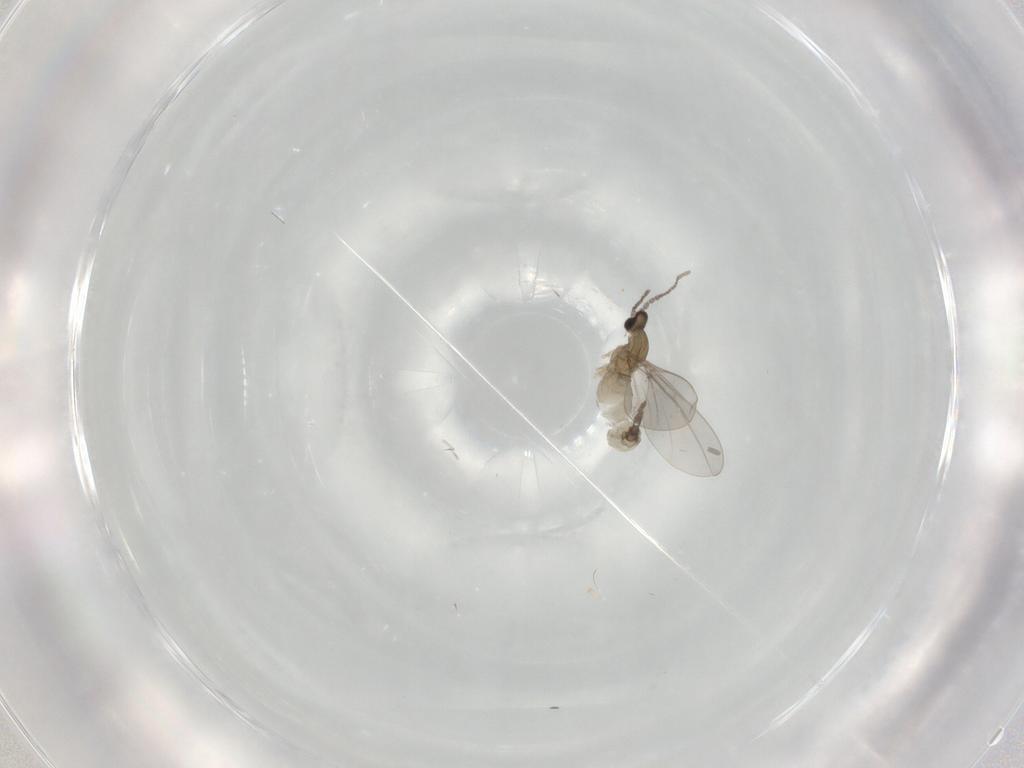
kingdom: Animalia
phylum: Arthropoda
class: Insecta
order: Diptera
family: Cecidomyiidae
